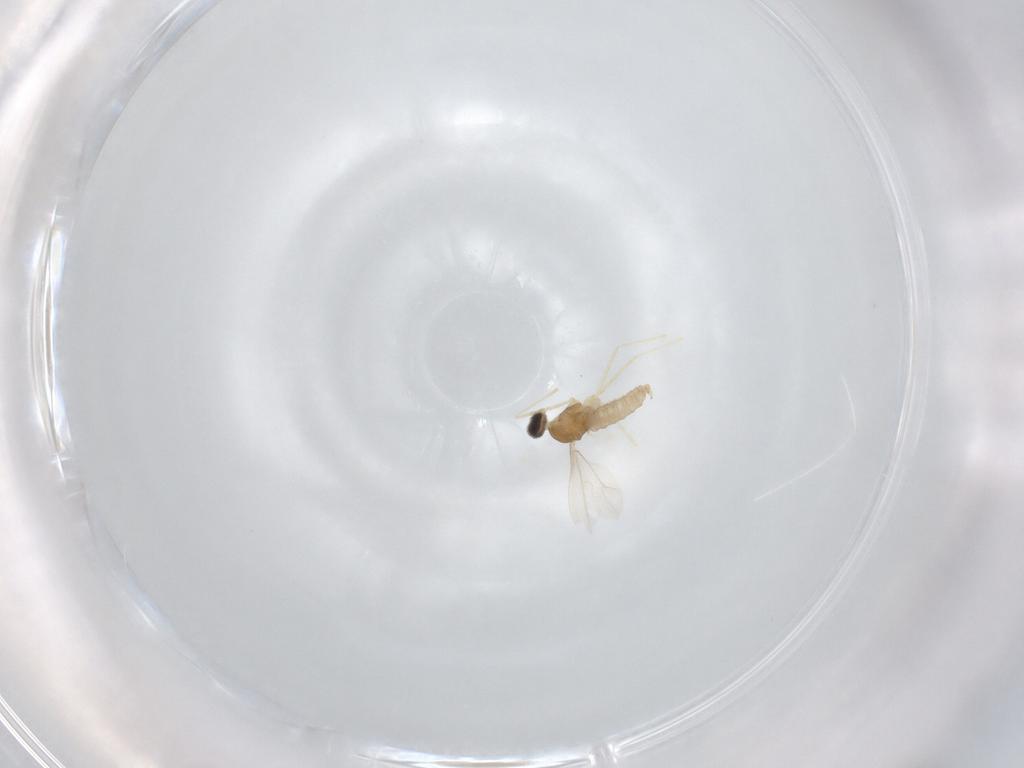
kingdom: Animalia
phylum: Arthropoda
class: Insecta
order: Diptera
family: Cecidomyiidae
